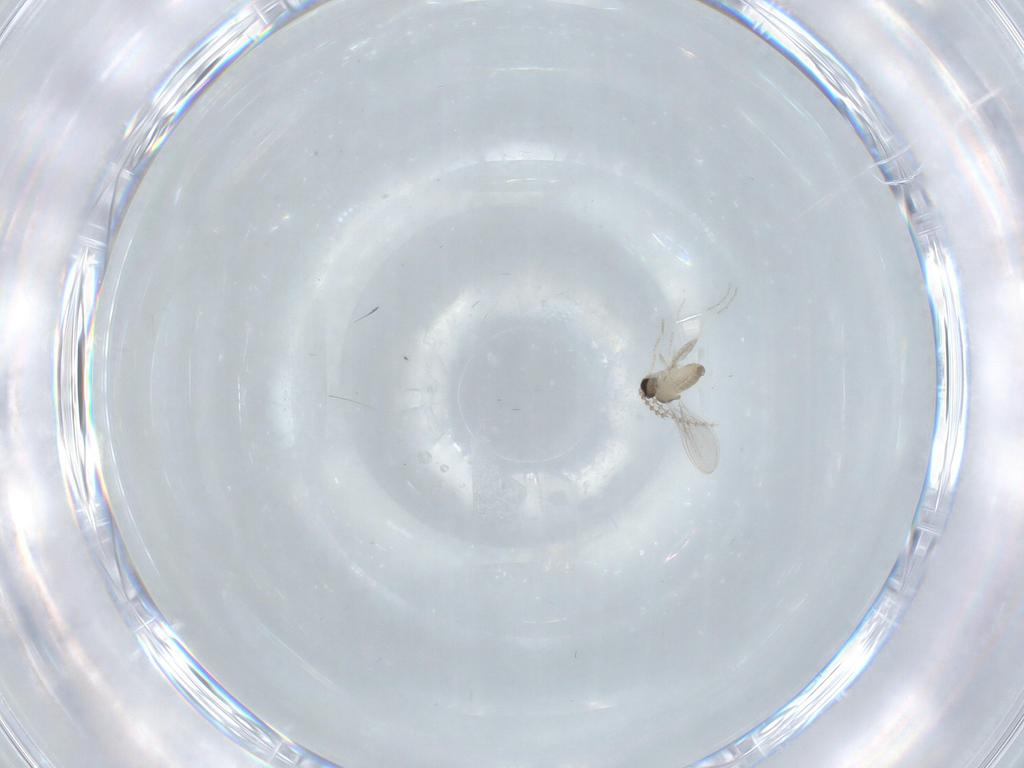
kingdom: Animalia
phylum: Arthropoda
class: Insecta
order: Diptera
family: Cecidomyiidae
